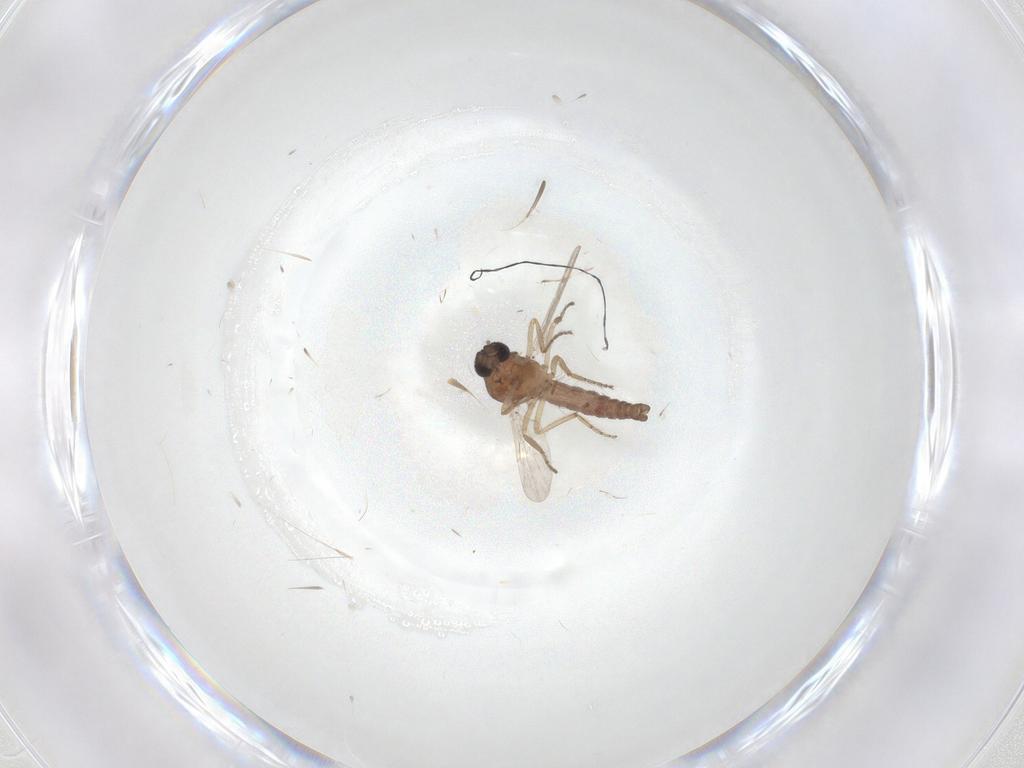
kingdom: Animalia
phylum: Arthropoda
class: Insecta
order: Diptera
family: Ceratopogonidae
